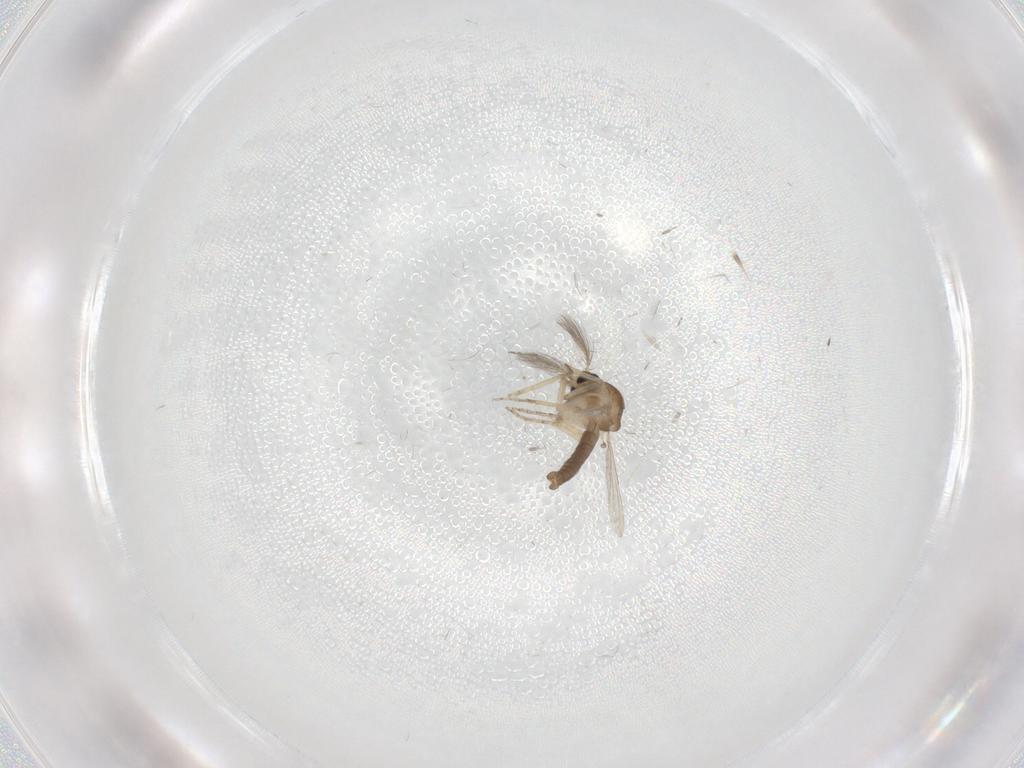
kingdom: Animalia
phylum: Arthropoda
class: Insecta
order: Diptera
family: Ceratopogonidae
